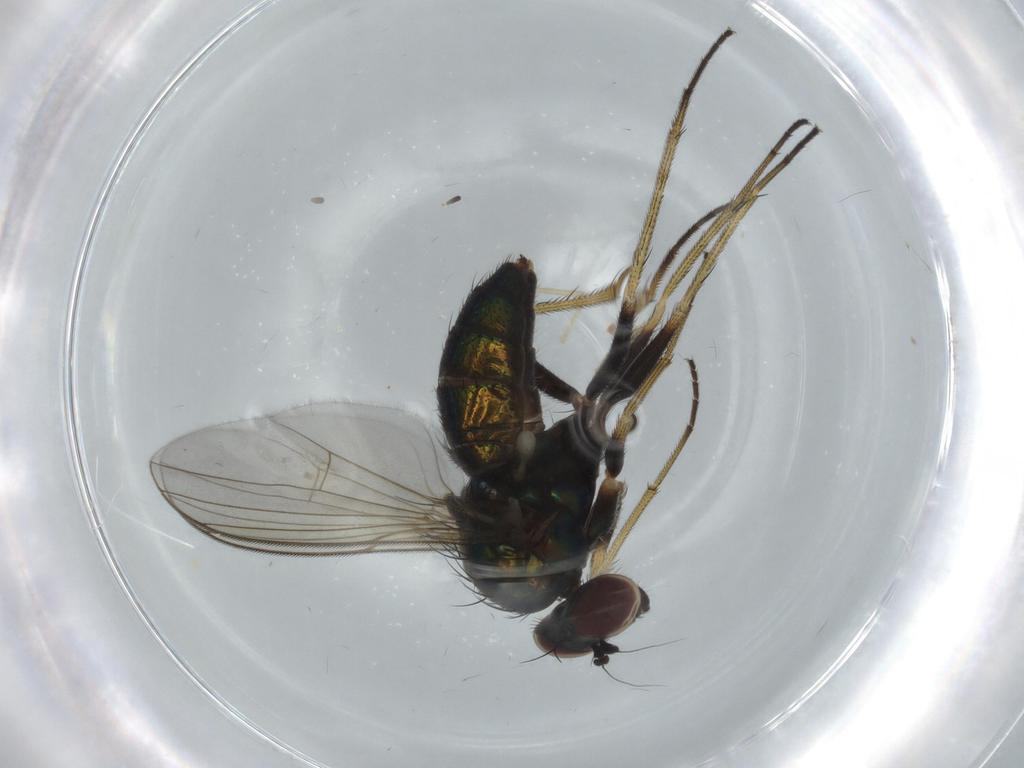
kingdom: Animalia
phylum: Arthropoda
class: Insecta
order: Diptera
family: Dolichopodidae
